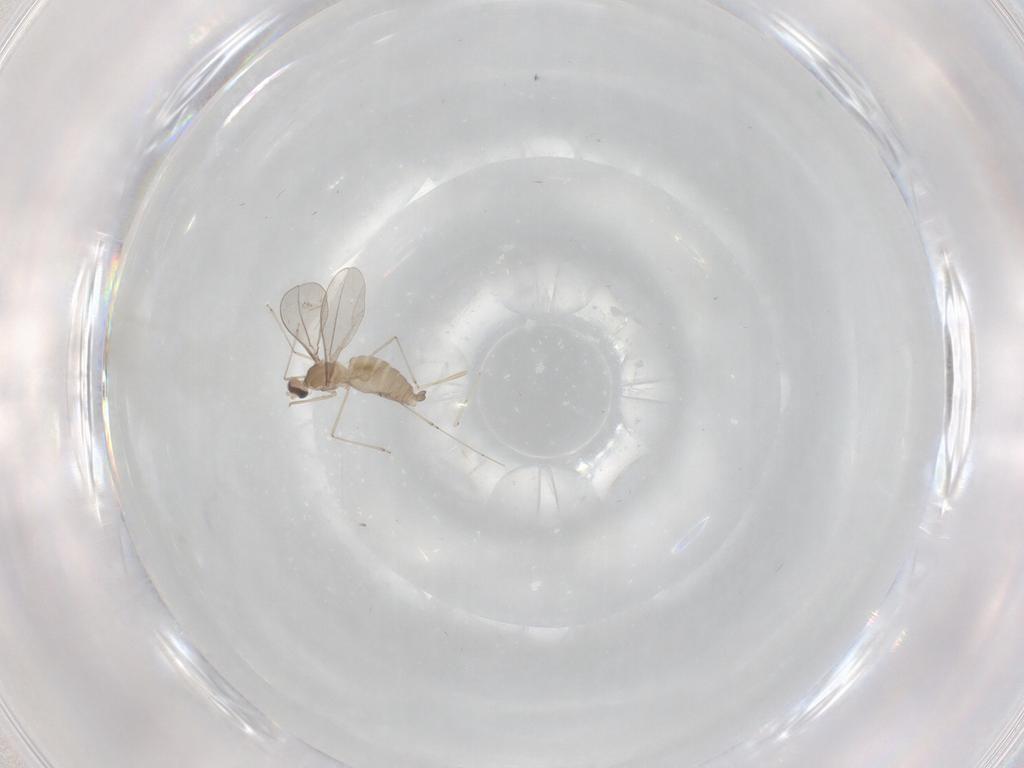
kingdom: Animalia
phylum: Arthropoda
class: Insecta
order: Diptera
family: Cecidomyiidae
